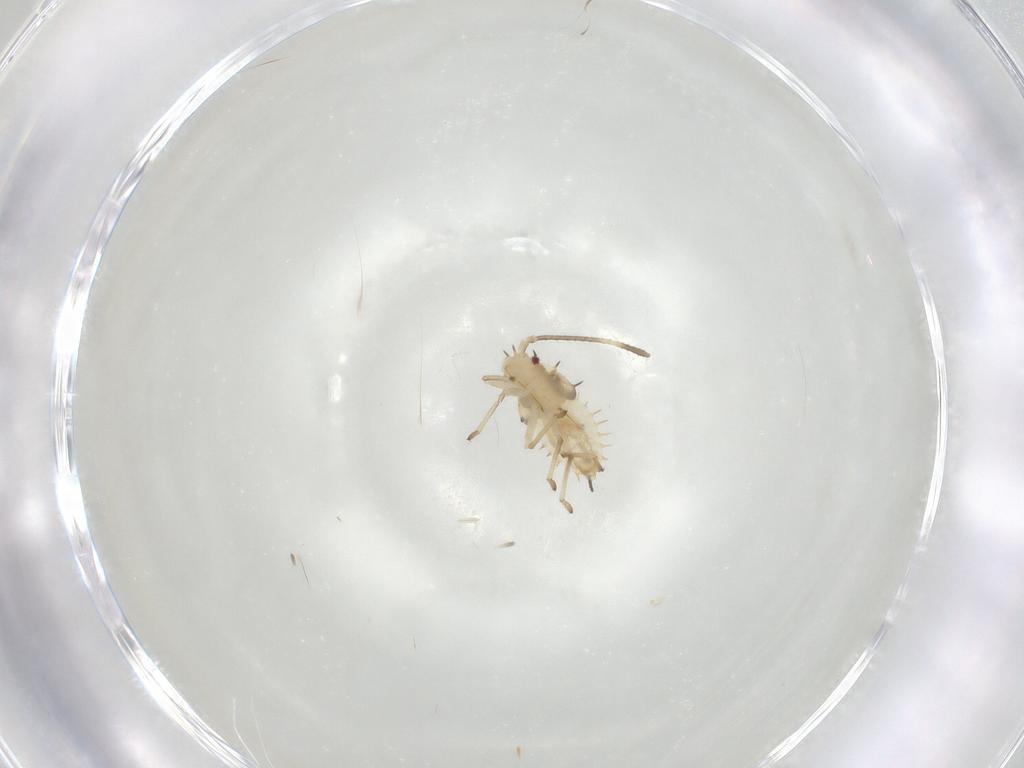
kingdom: Animalia
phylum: Arthropoda
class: Insecta
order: Hemiptera
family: Tingidae
